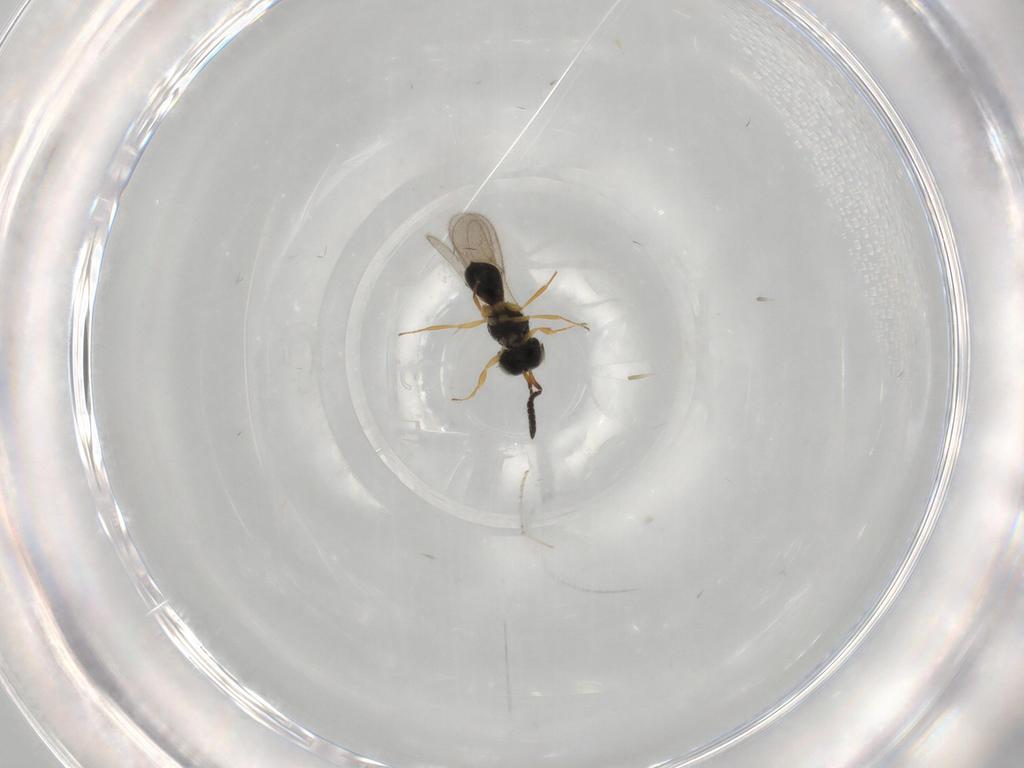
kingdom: Animalia
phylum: Arthropoda
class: Insecta
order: Hymenoptera
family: Scelionidae
